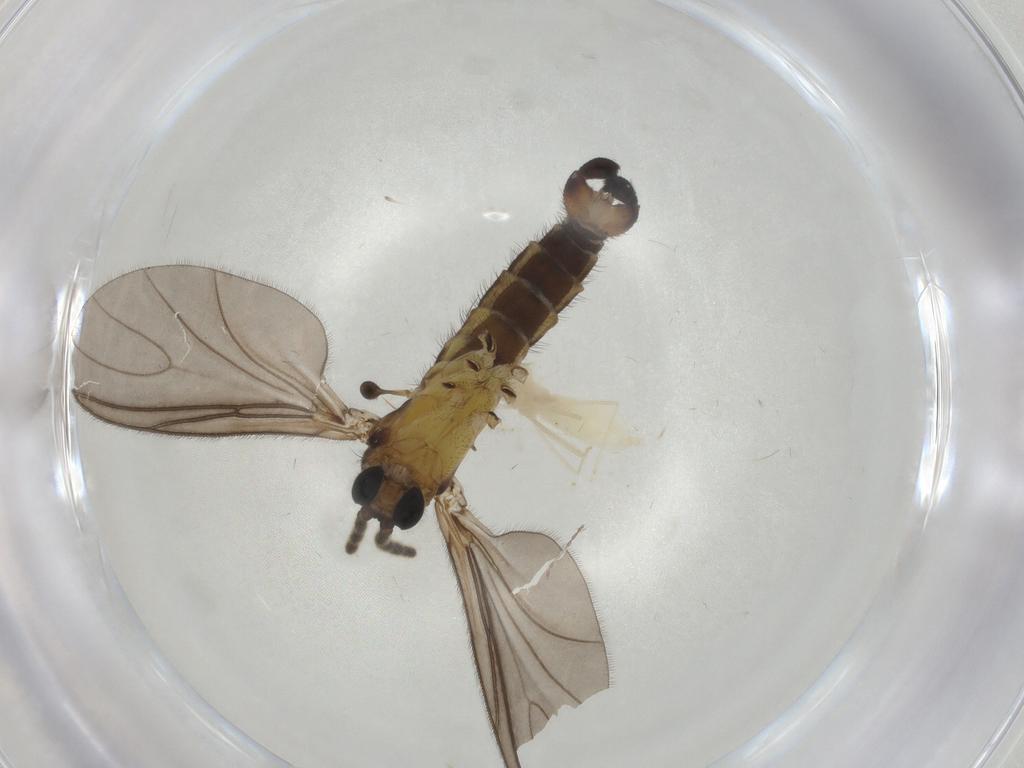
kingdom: Animalia
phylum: Arthropoda
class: Insecta
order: Diptera
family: Sciaridae
